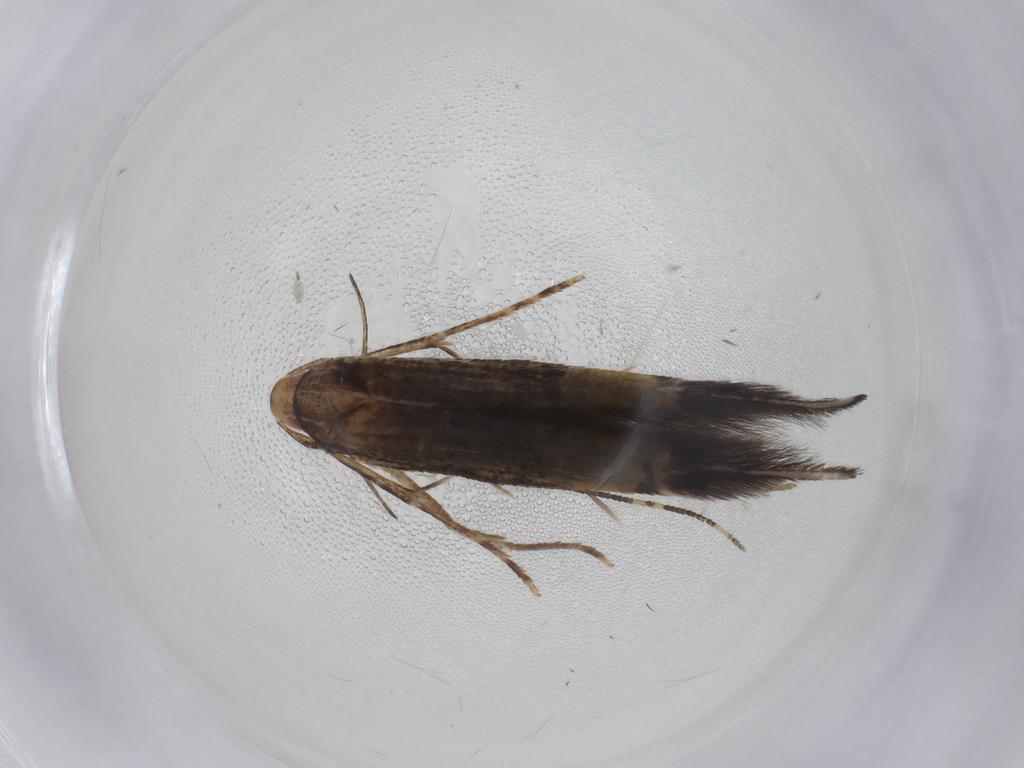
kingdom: Animalia
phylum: Arthropoda
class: Insecta
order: Lepidoptera
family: Cosmopterigidae
